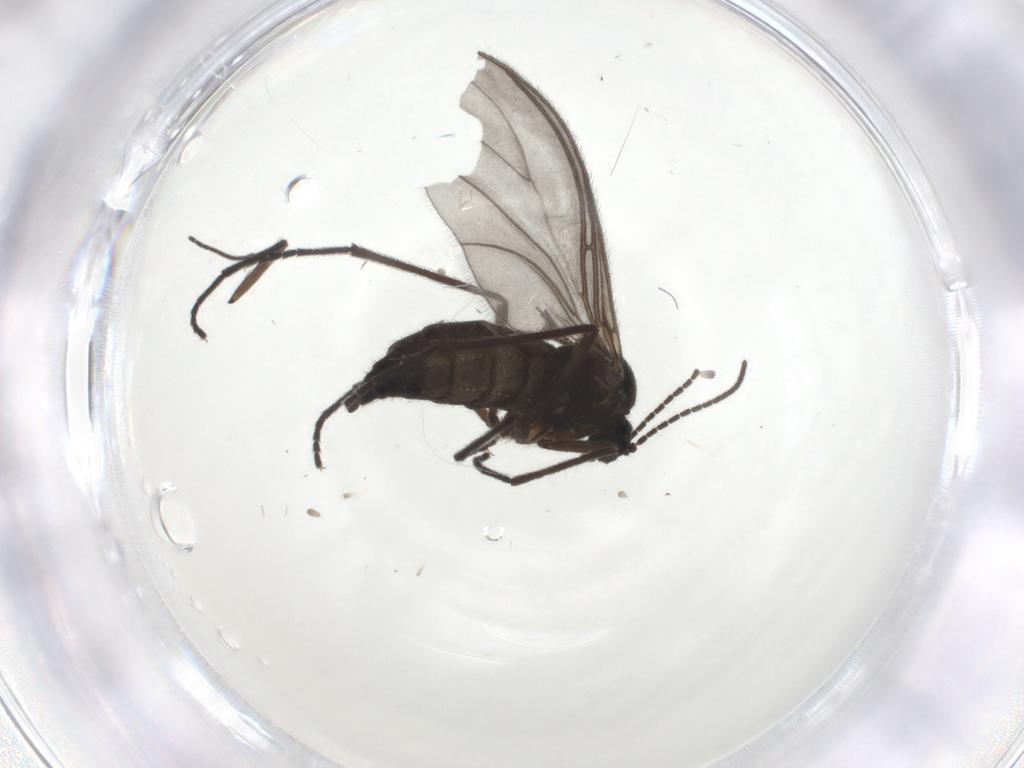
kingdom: Animalia
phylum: Arthropoda
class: Insecta
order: Diptera
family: Sciaridae
